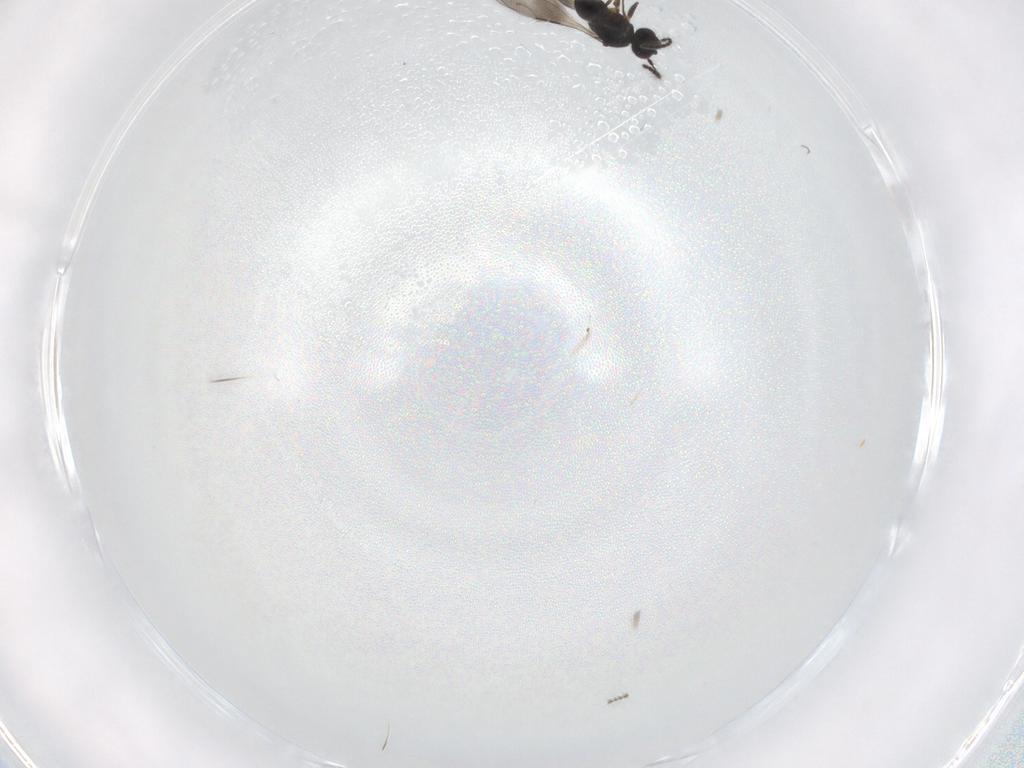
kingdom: Animalia
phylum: Arthropoda
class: Insecta
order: Hymenoptera
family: Ceraphronidae
